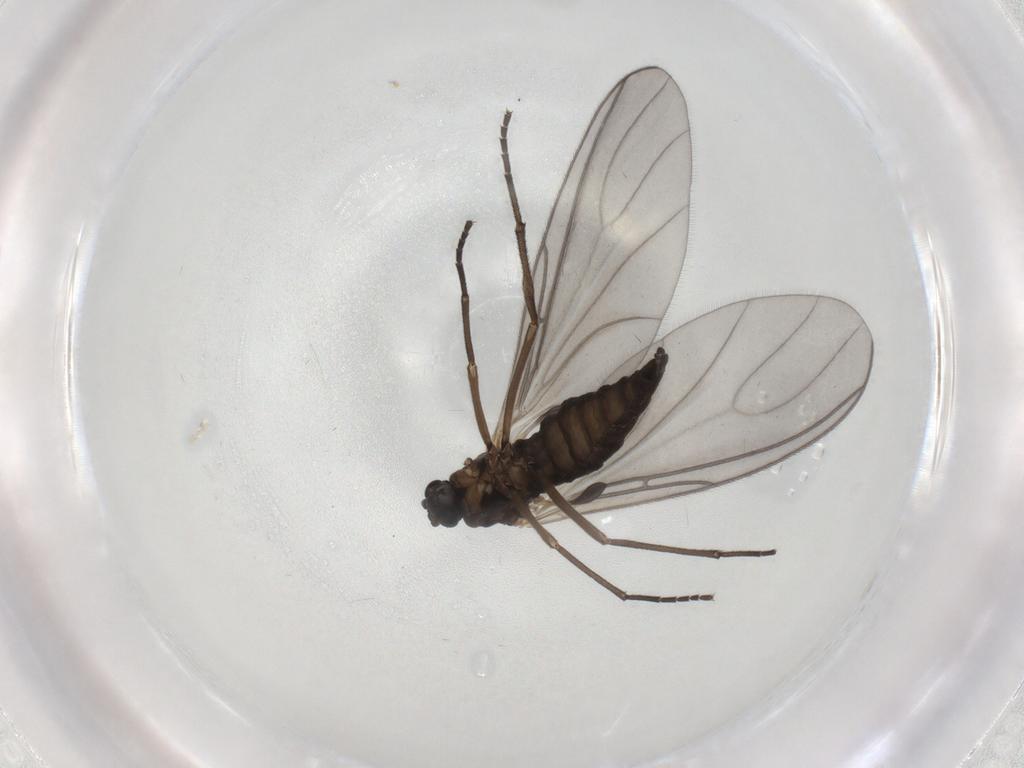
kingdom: Animalia
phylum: Arthropoda
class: Insecta
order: Diptera
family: Sciaridae
